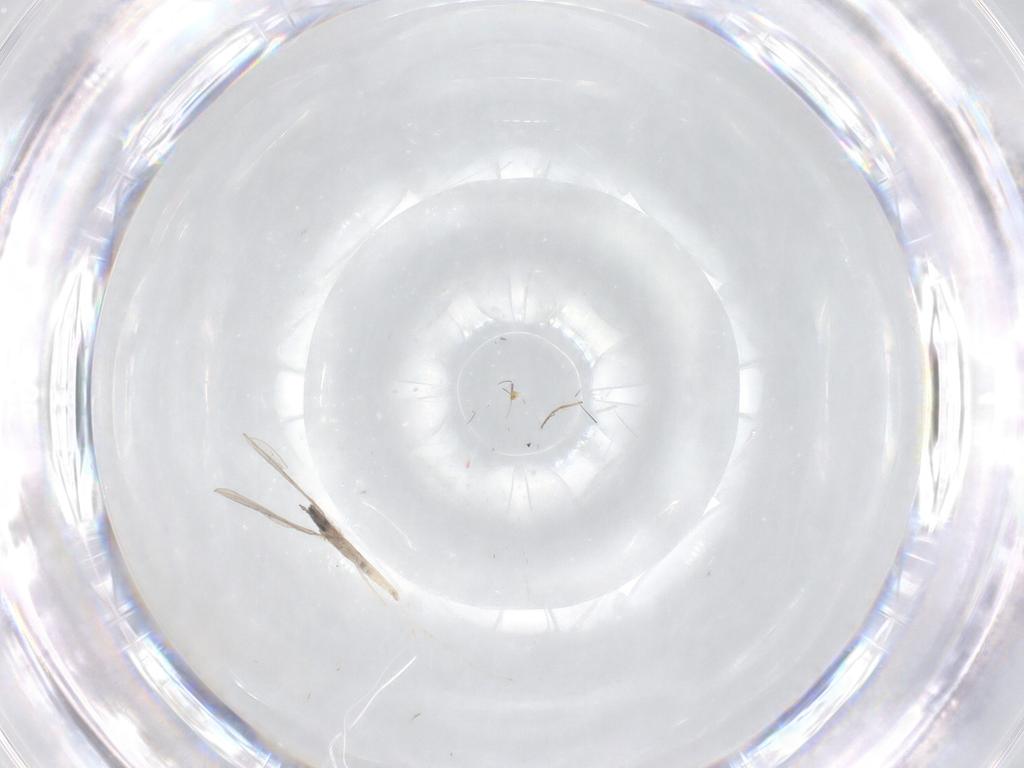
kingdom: Animalia
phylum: Arthropoda
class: Insecta
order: Diptera
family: Cecidomyiidae
